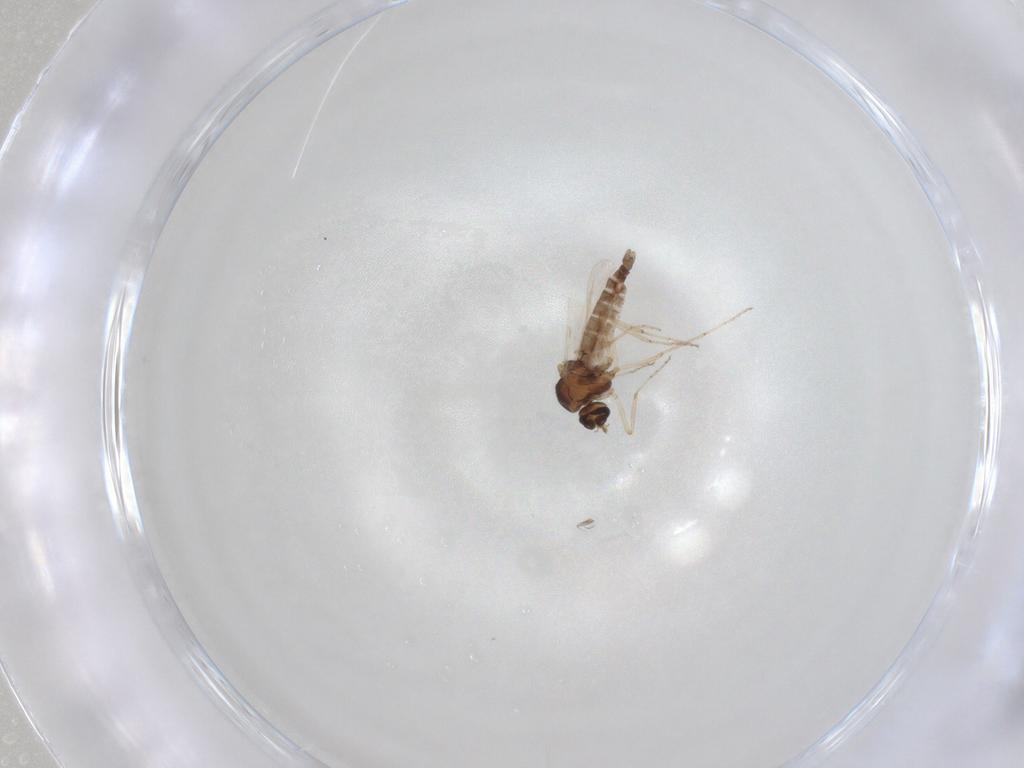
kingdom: Animalia
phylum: Arthropoda
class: Insecta
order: Diptera
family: Ceratopogonidae
